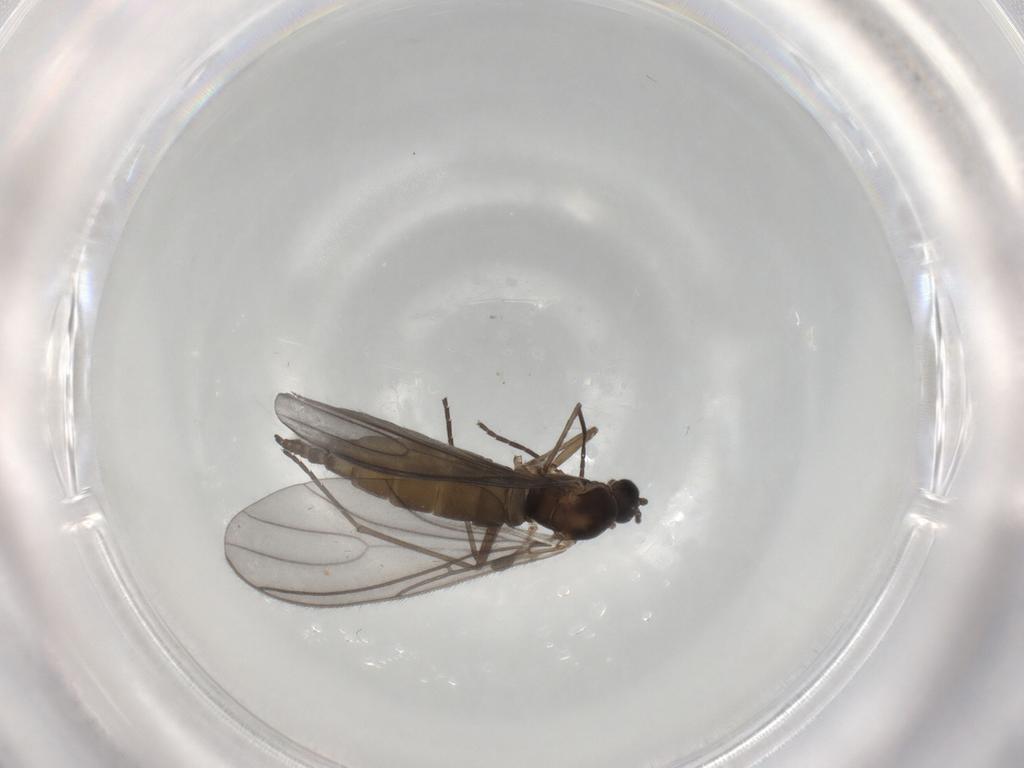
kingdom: Animalia
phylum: Arthropoda
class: Insecta
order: Diptera
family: Sciaridae
